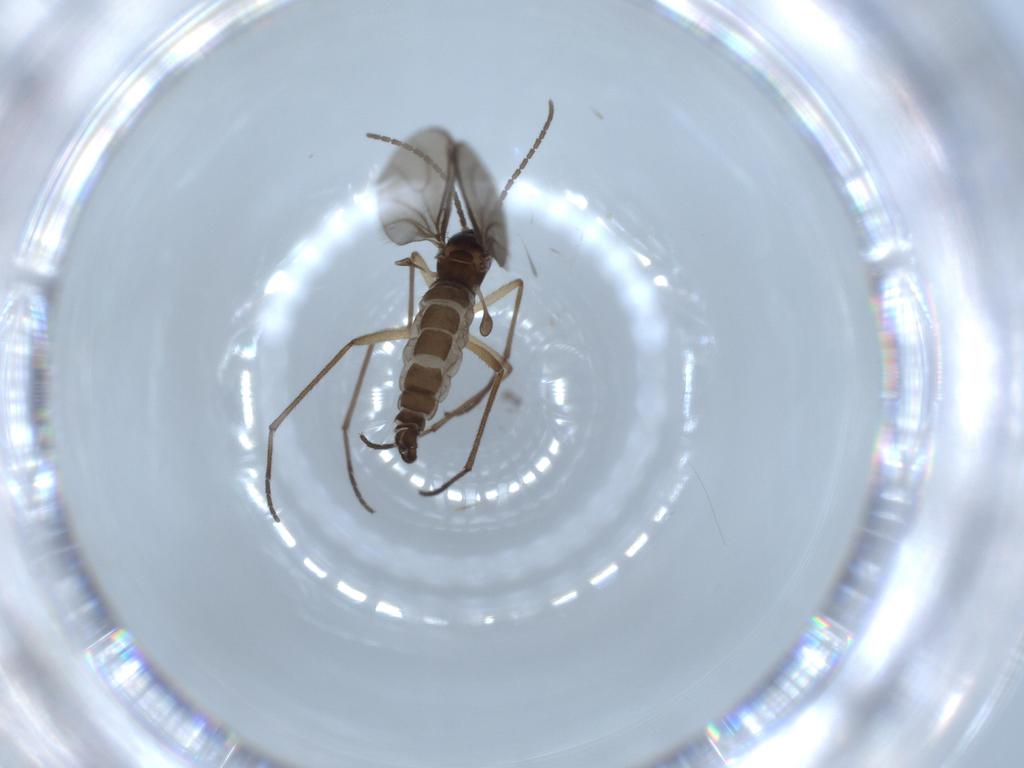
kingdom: Animalia
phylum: Arthropoda
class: Insecta
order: Diptera
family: Sciaridae
